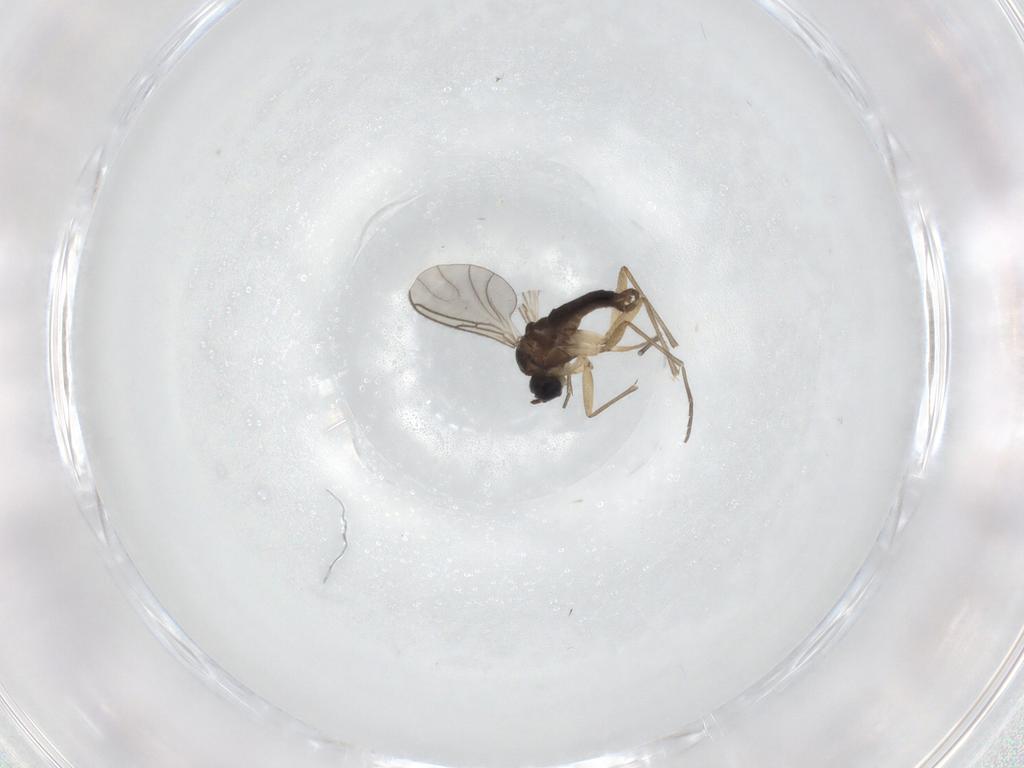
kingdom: Animalia
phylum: Arthropoda
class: Insecta
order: Diptera
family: Sciaridae
